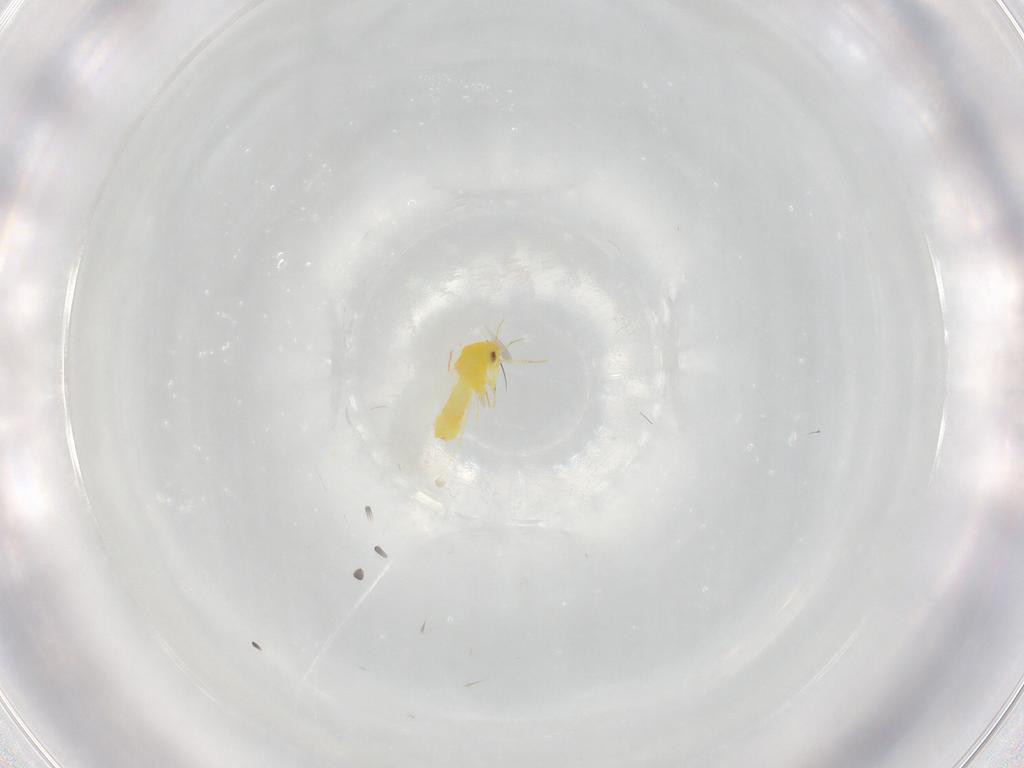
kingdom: Animalia
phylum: Arthropoda
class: Insecta
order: Hemiptera
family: Aleyrodidae
